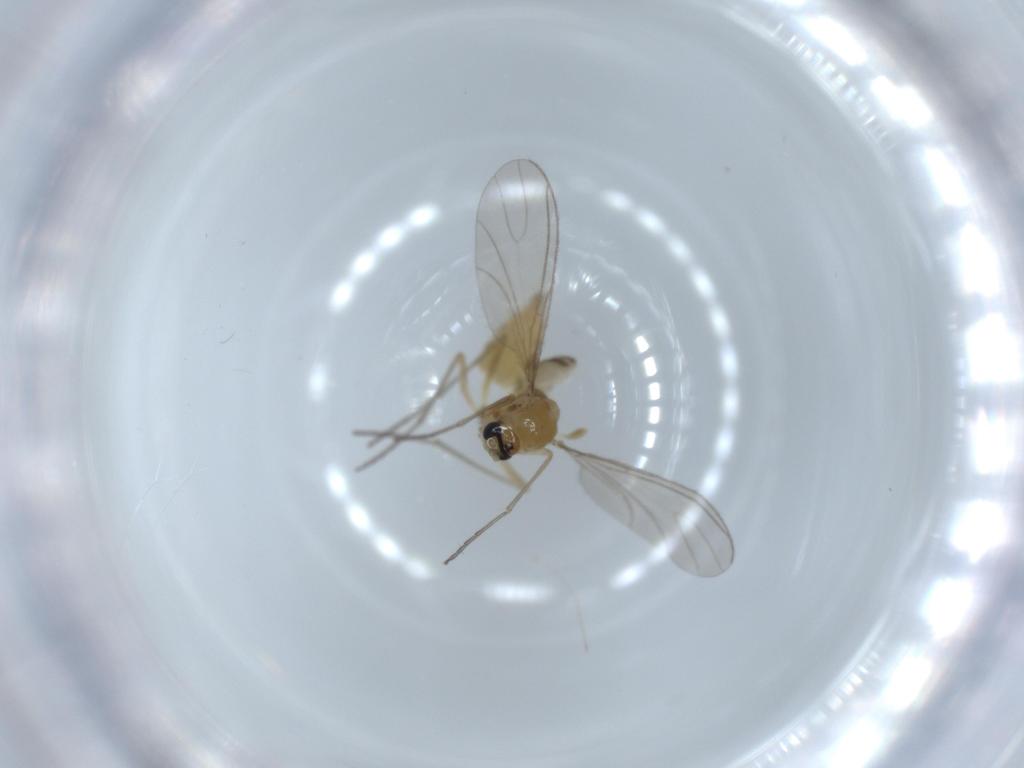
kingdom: Animalia
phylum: Arthropoda
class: Insecta
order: Diptera
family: Sciaridae
